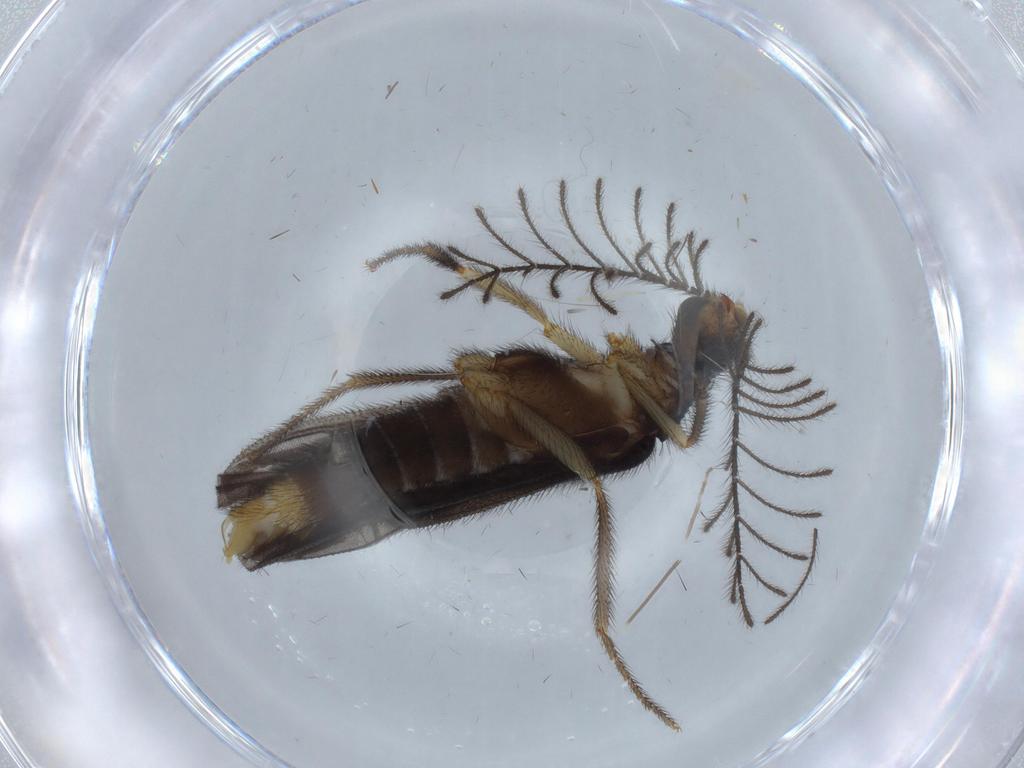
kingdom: Animalia
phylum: Arthropoda
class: Insecta
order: Coleoptera
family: Phengodidae
